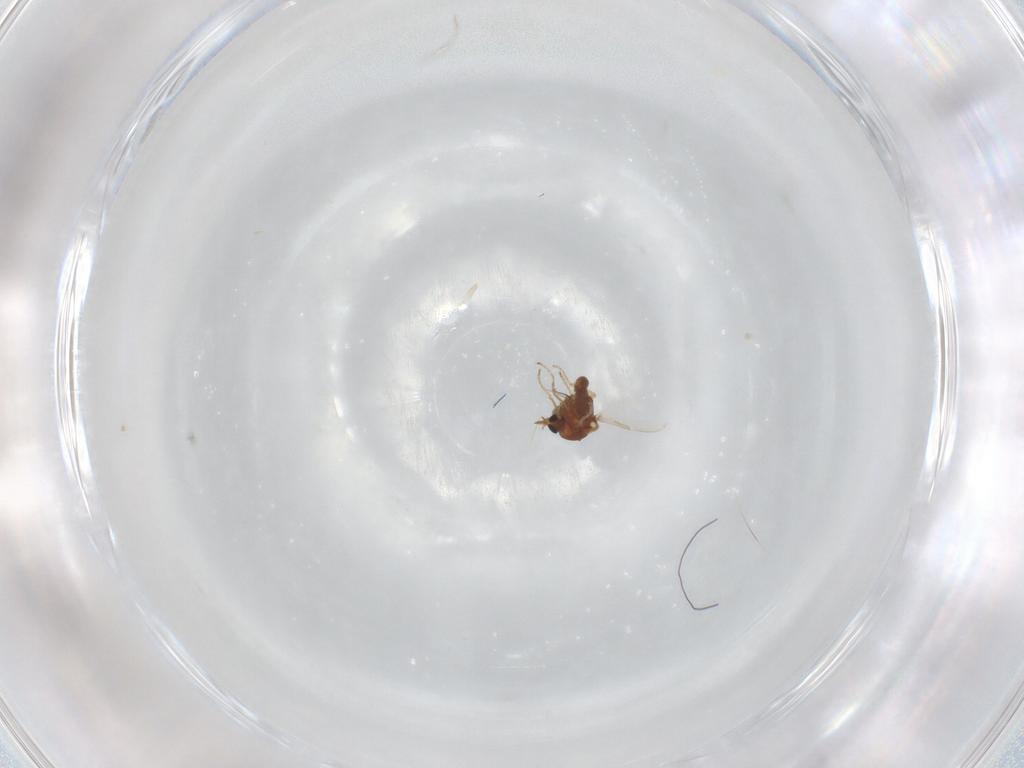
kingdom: Animalia
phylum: Arthropoda
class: Insecta
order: Diptera
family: Ceratopogonidae
